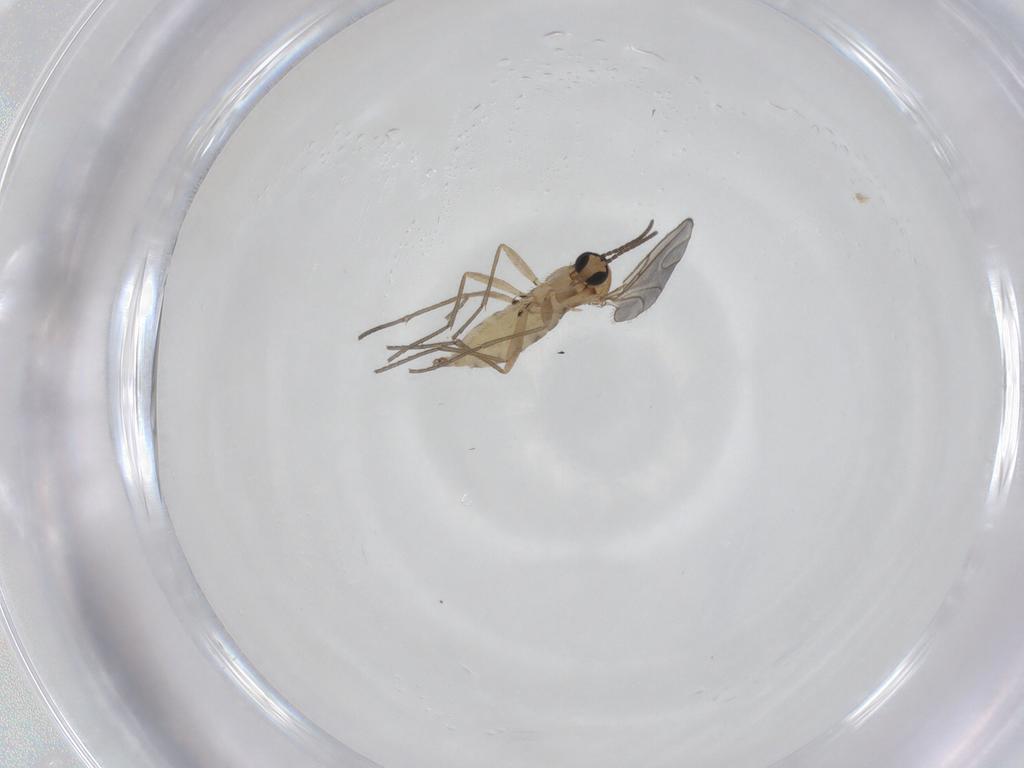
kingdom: Animalia
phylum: Arthropoda
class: Insecta
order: Diptera
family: Sciaridae
